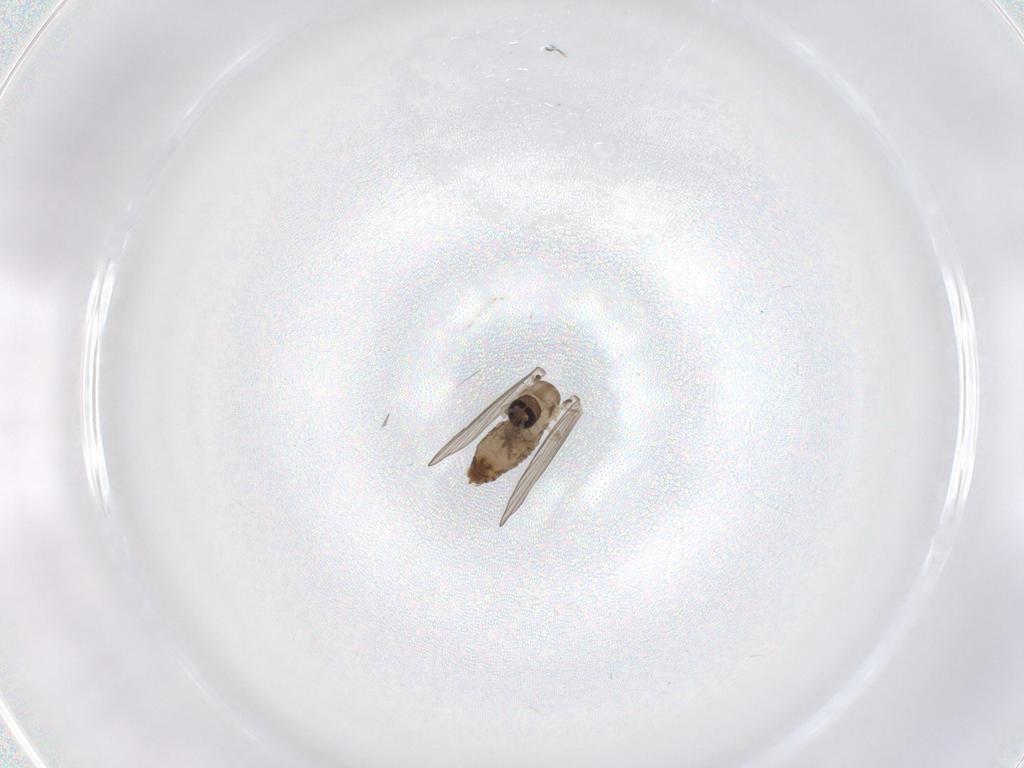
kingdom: Animalia
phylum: Arthropoda
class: Insecta
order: Diptera
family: Psychodidae
